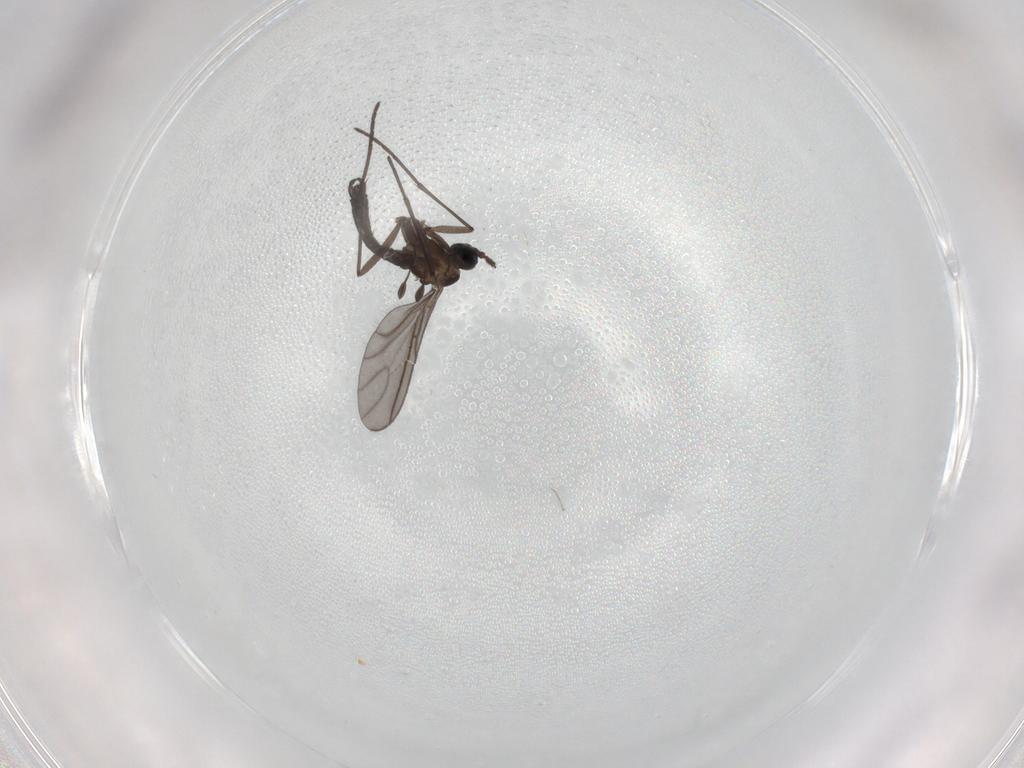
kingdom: Animalia
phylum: Arthropoda
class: Insecta
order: Diptera
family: Sciaridae
